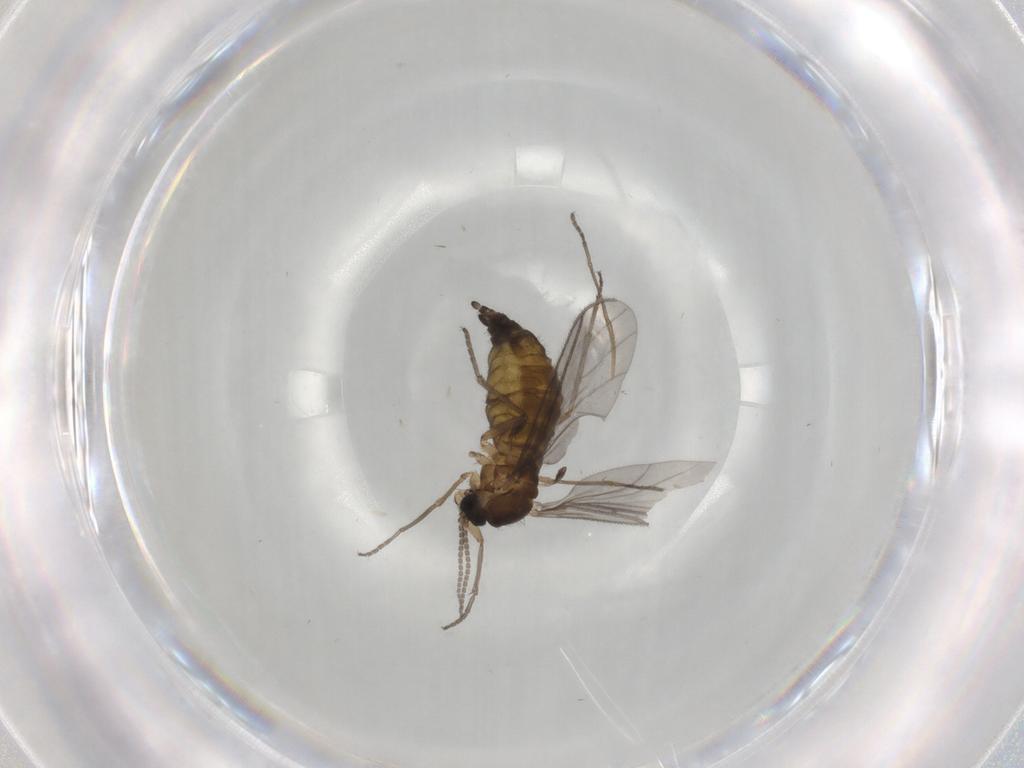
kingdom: Animalia
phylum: Arthropoda
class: Insecta
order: Diptera
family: Sciaridae
